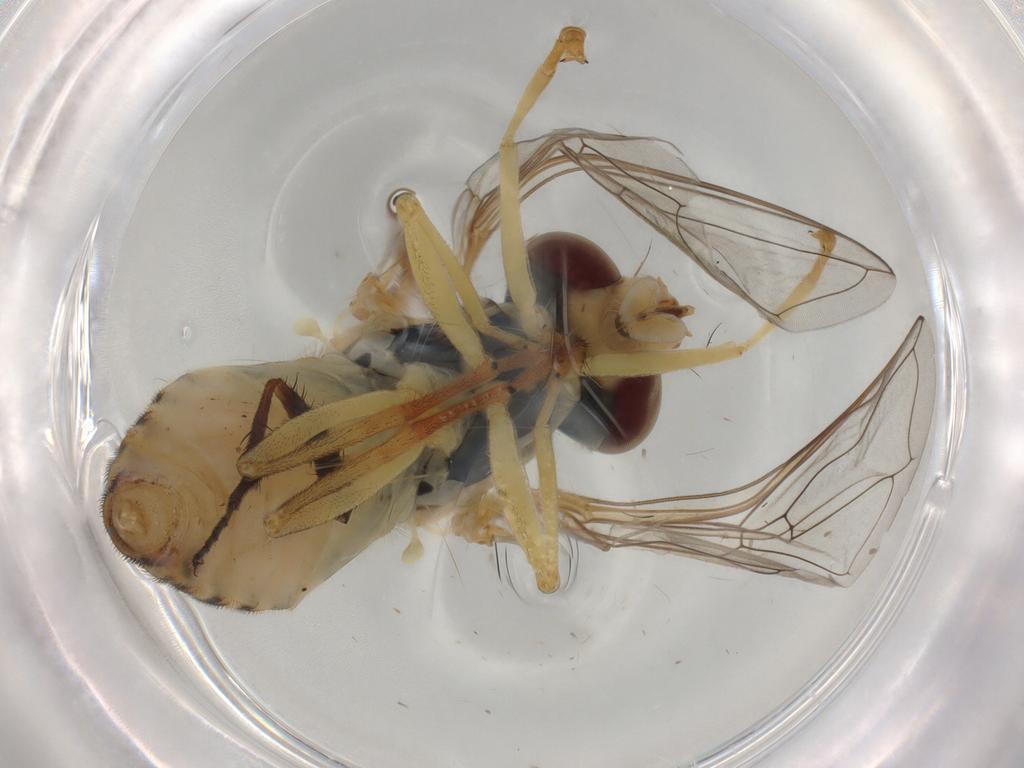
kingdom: Animalia
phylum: Arthropoda
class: Insecta
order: Diptera
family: Syrphidae
